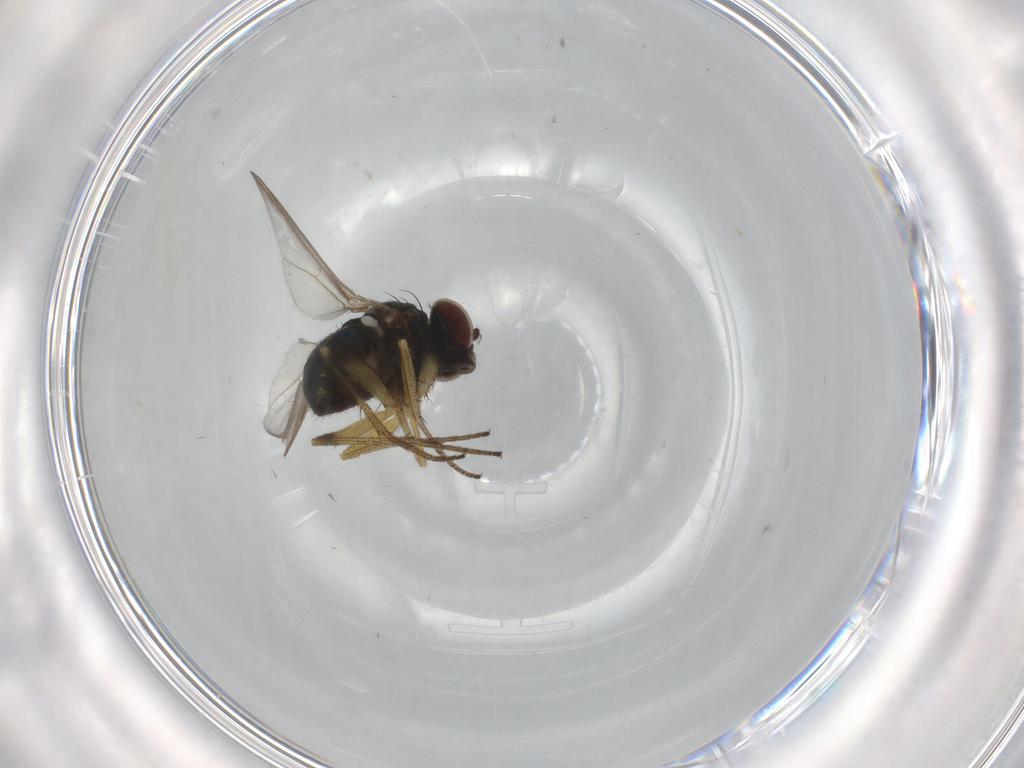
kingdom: Animalia
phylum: Arthropoda
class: Insecta
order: Diptera
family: Dolichopodidae
